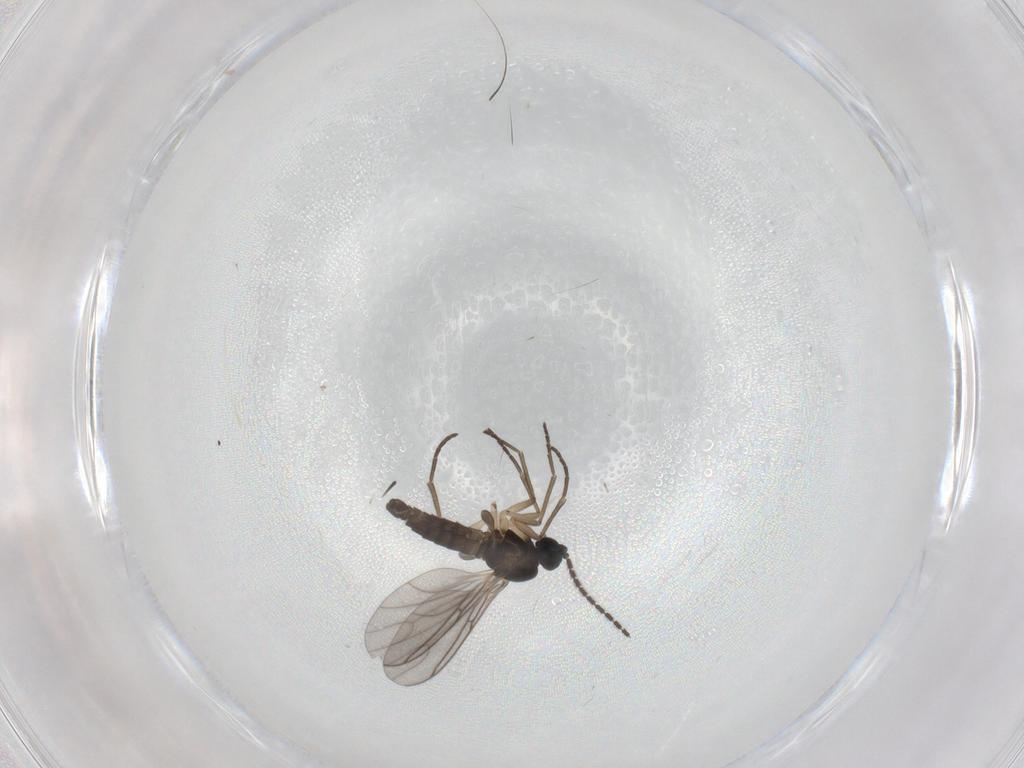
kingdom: Animalia
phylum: Arthropoda
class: Insecta
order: Diptera
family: Sciaridae
